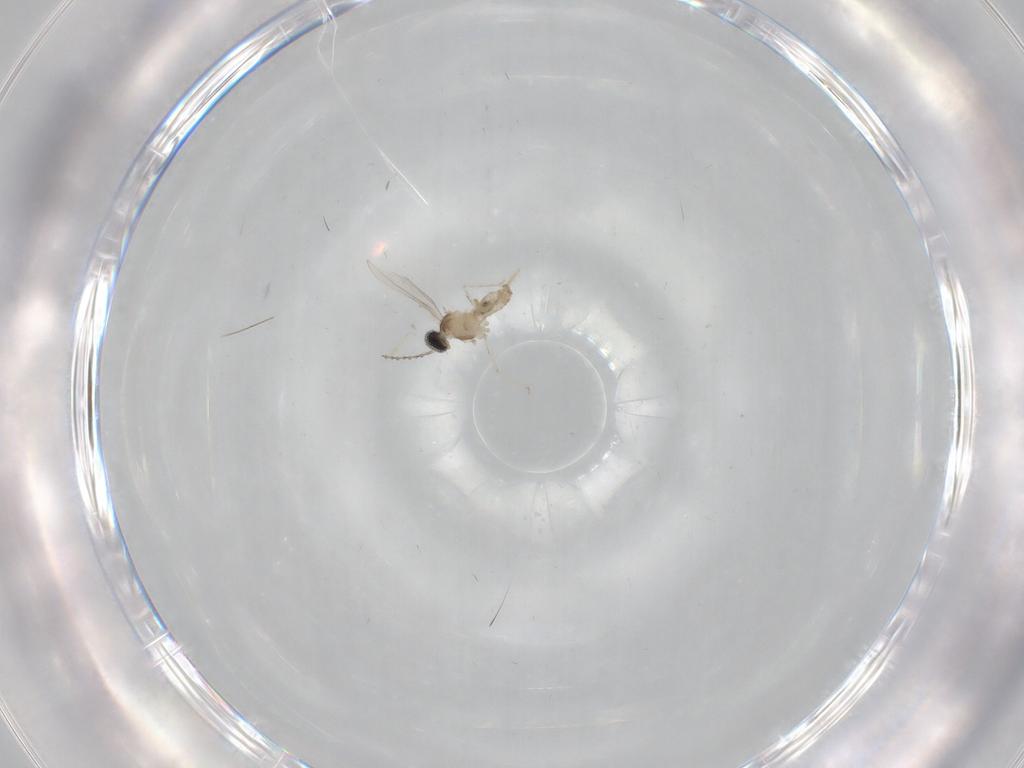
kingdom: Animalia
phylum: Arthropoda
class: Insecta
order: Diptera
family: Cecidomyiidae
